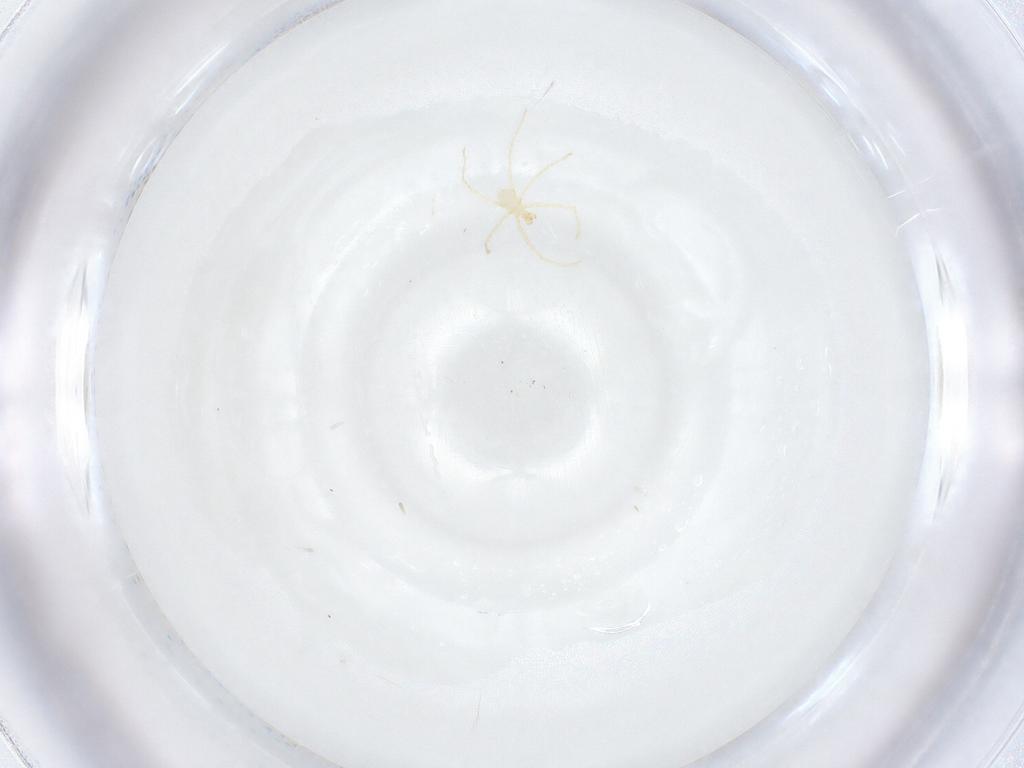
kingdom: Animalia
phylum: Arthropoda
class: Arachnida
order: Trombidiformes
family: Erythraeidae
